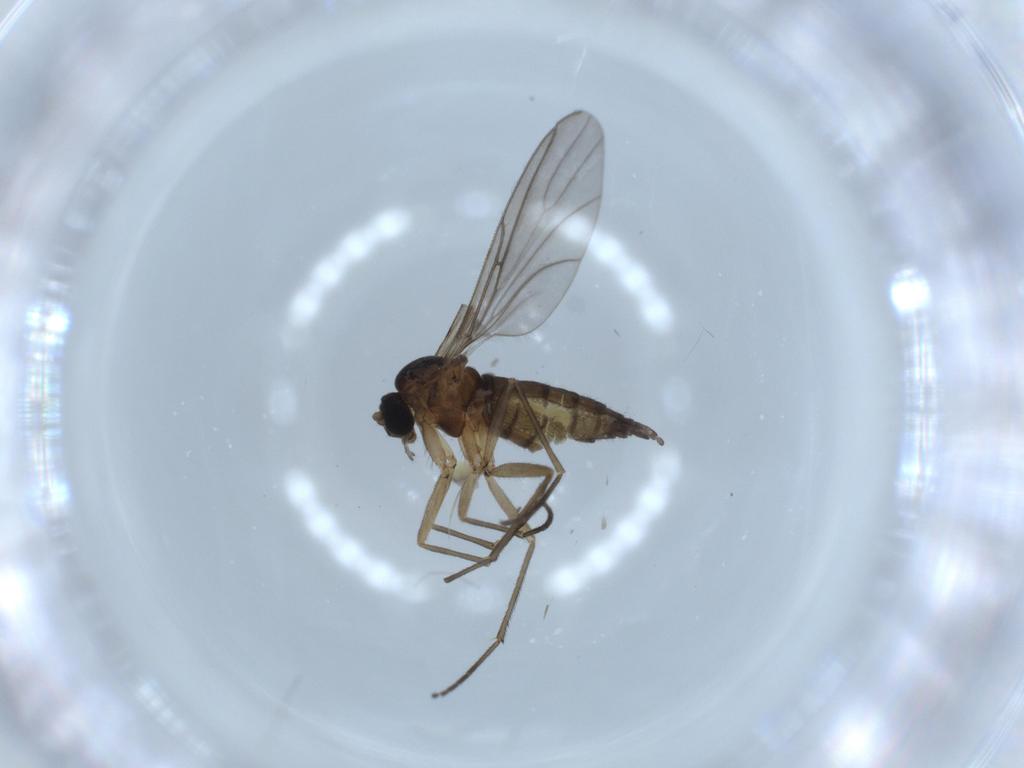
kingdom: Animalia
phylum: Arthropoda
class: Insecta
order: Diptera
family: Sciaridae
